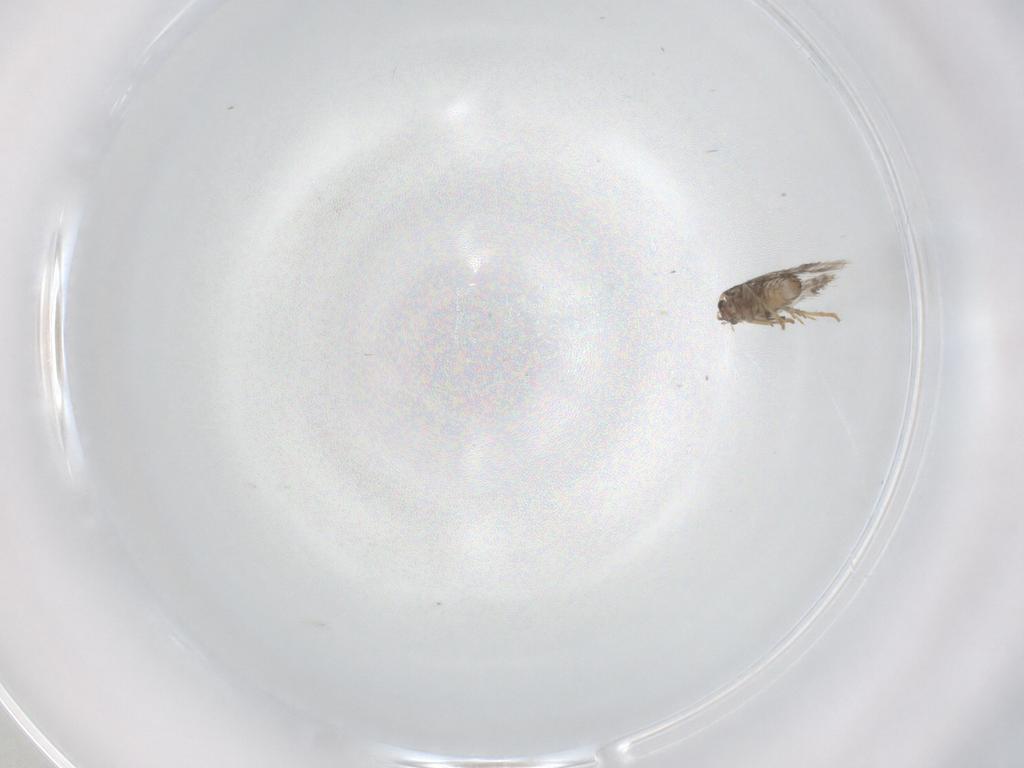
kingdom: Animalia
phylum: Arthropoda
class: Insecta
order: Lepidoptera
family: Nepticulidae
